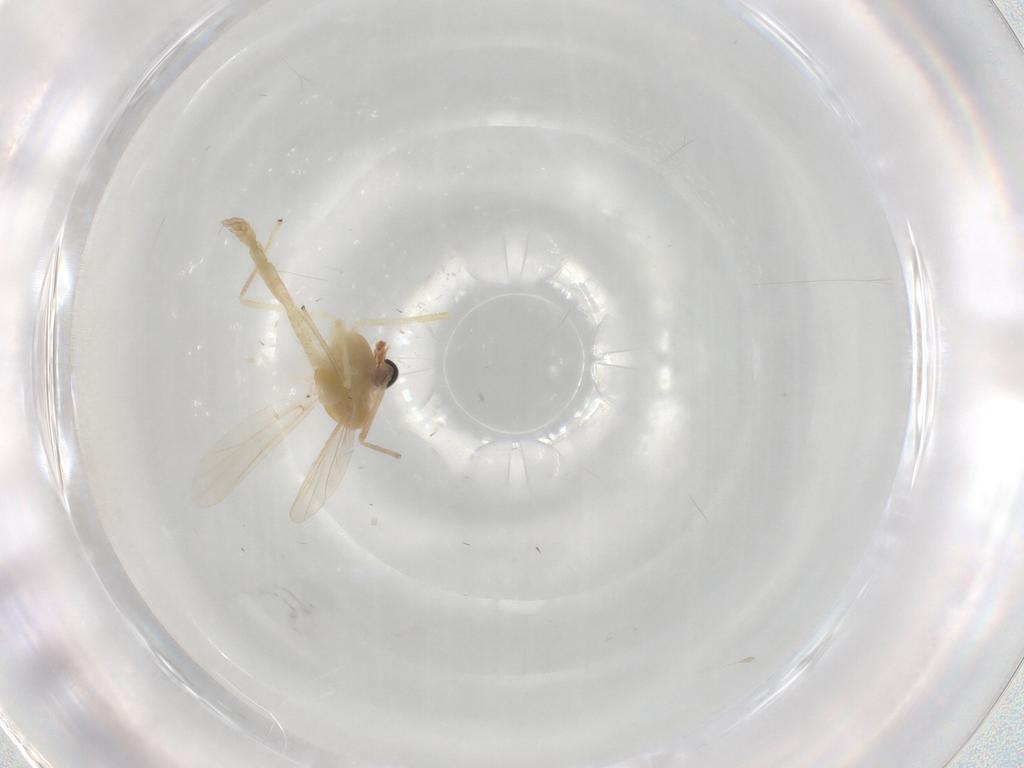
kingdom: Animalia
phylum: Arthropoda
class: Insecta
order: Diptera
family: Chironomidae
